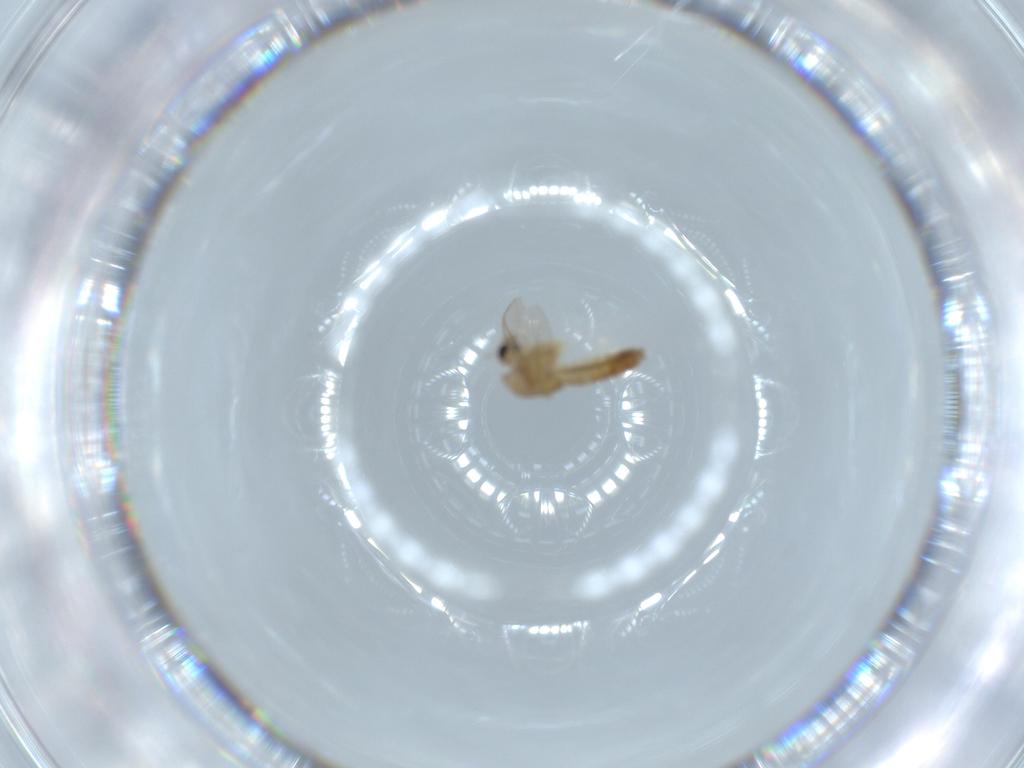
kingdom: Animalia
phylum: Arthropoda
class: Insecta
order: Diptera
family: Chironomidae
